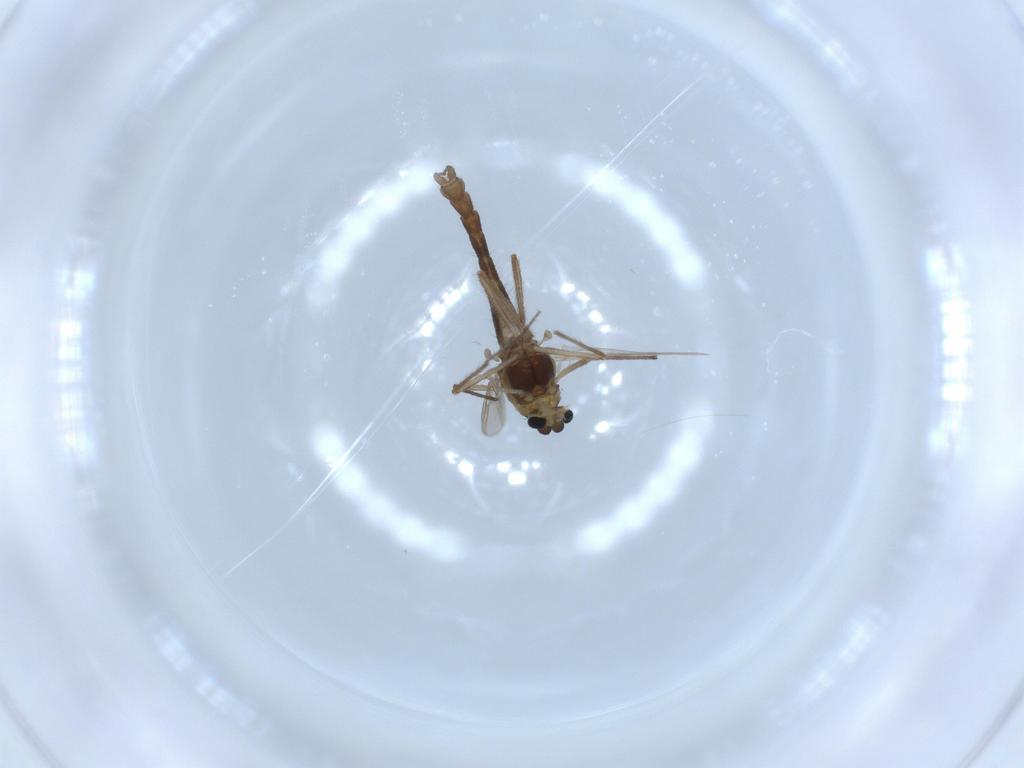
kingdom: Animalia
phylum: Arthropoda
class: Insecta
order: Diptera
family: Chironomidae
